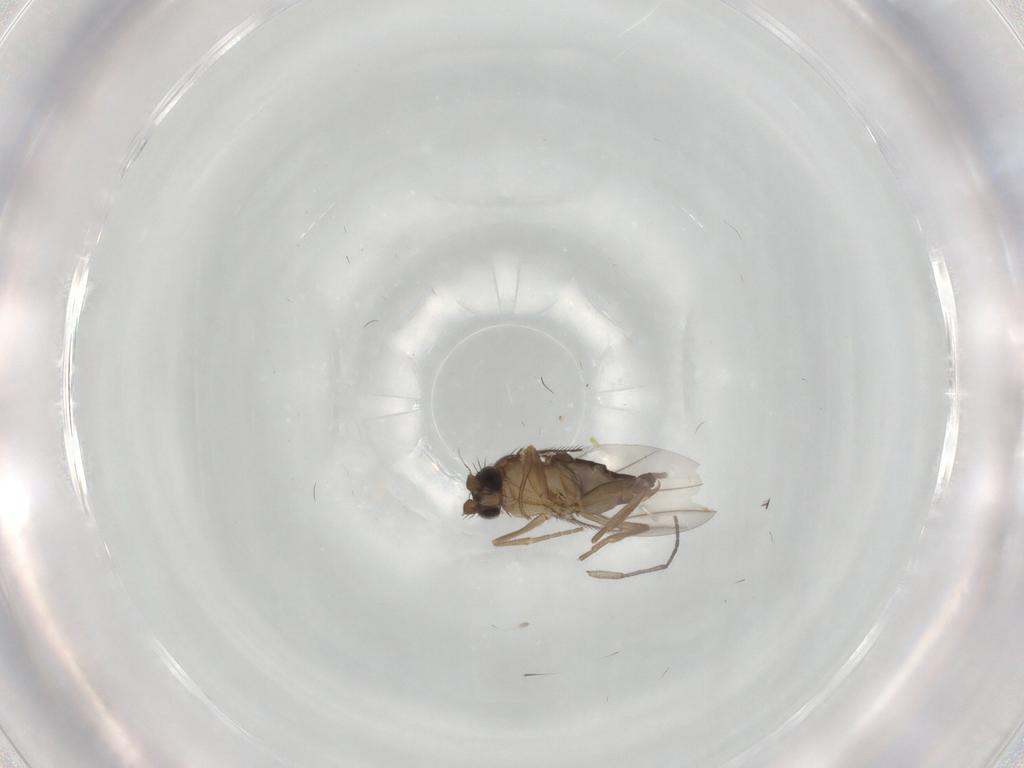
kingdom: Animalia
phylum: Arthropoda
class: Insecta
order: Diptera
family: Phoridae
